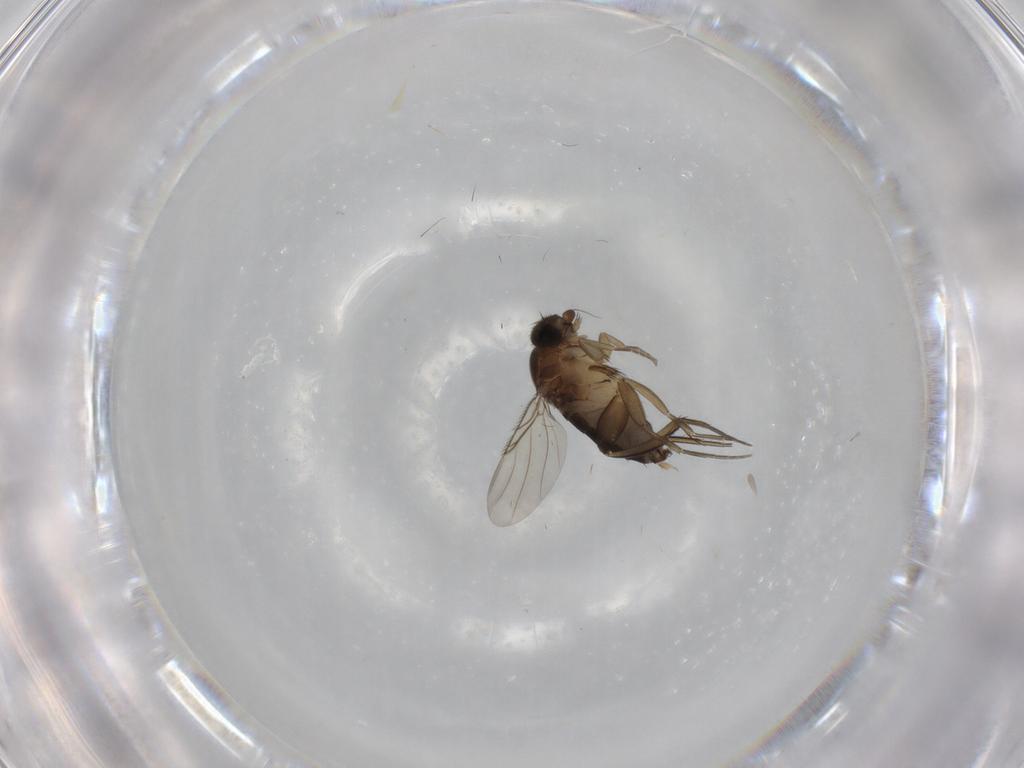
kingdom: Animalia
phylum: Arthropoda
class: Insecta
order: Diptera
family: Phoridae
